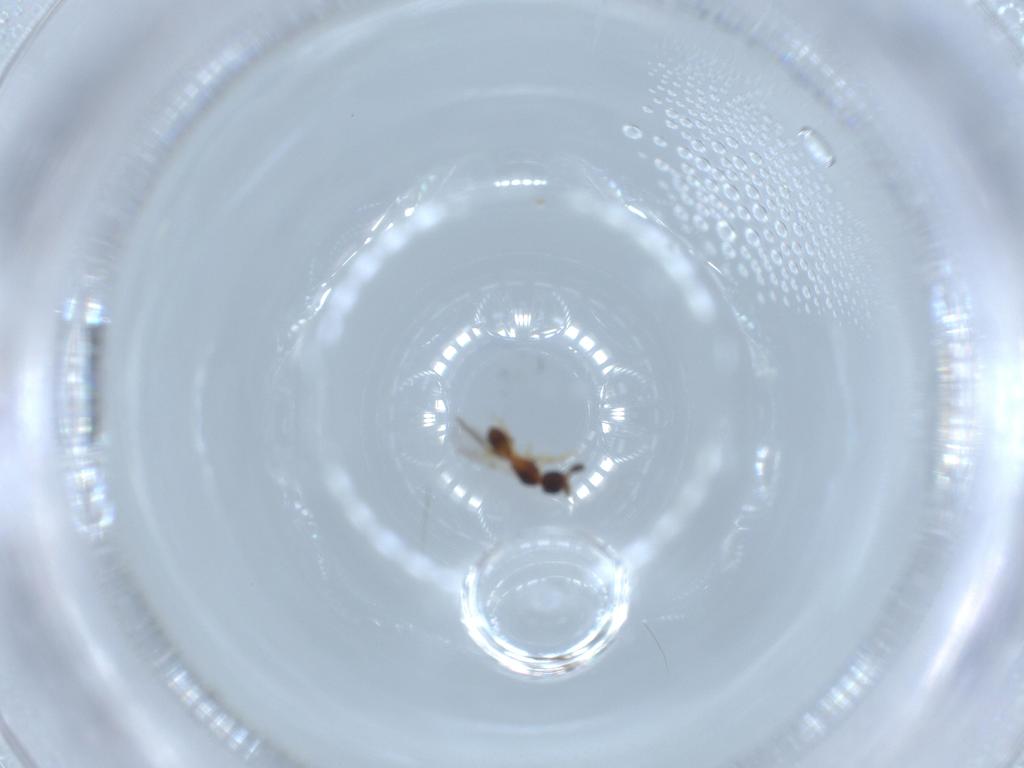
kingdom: Animalia
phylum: Arthropoda
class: Insecta
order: Hymenoptera
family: Diapriidae
